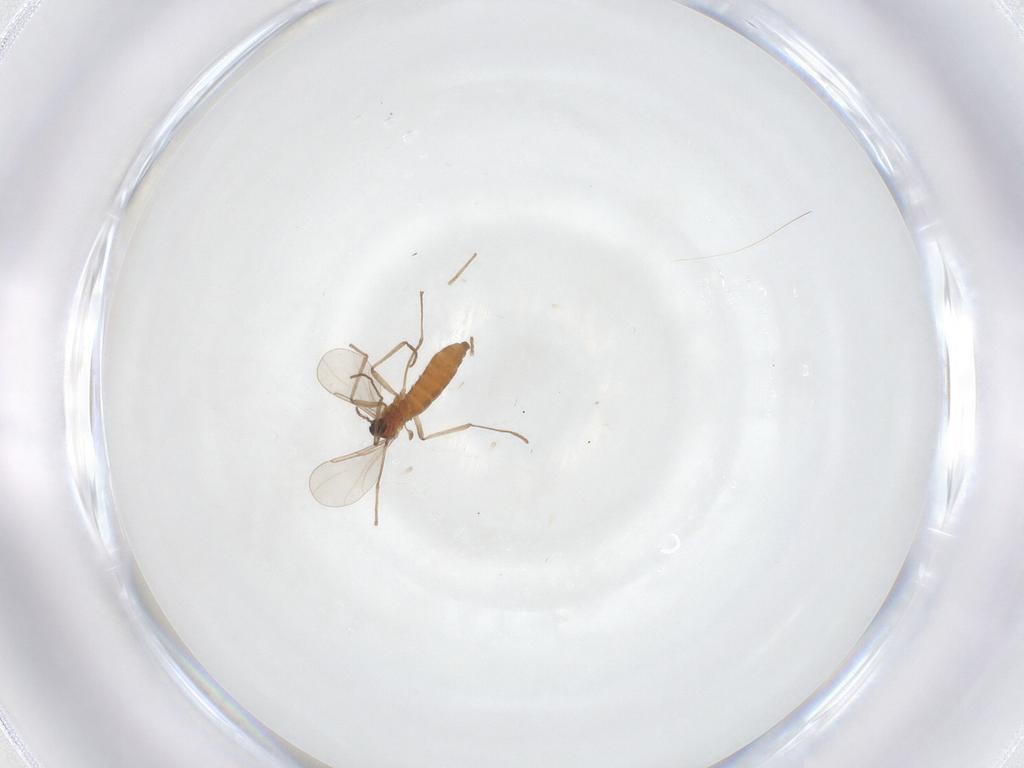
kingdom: Animalia
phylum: Arthropoda
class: Insecta
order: Diptera
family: Cecidomyiidae
